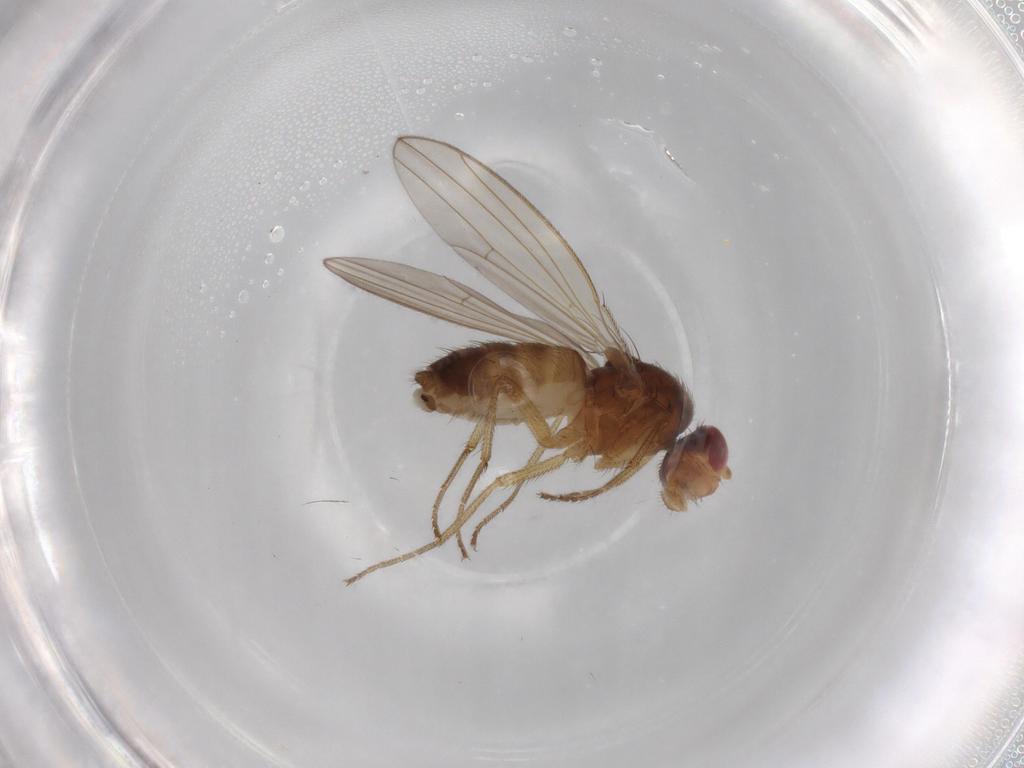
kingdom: Animalia
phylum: Arthropoda
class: Insecta
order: Diptera
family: Drosophilidae
